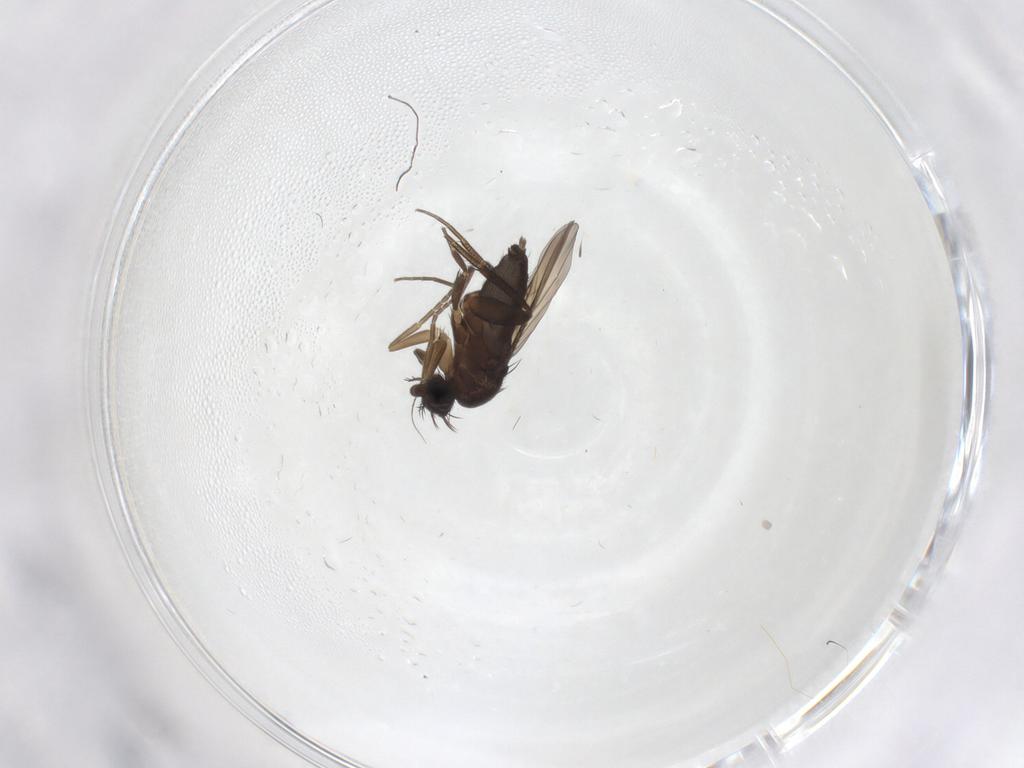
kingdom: Animalia
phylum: Arthropoda
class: Insecta
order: Diptera
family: Phoridae
